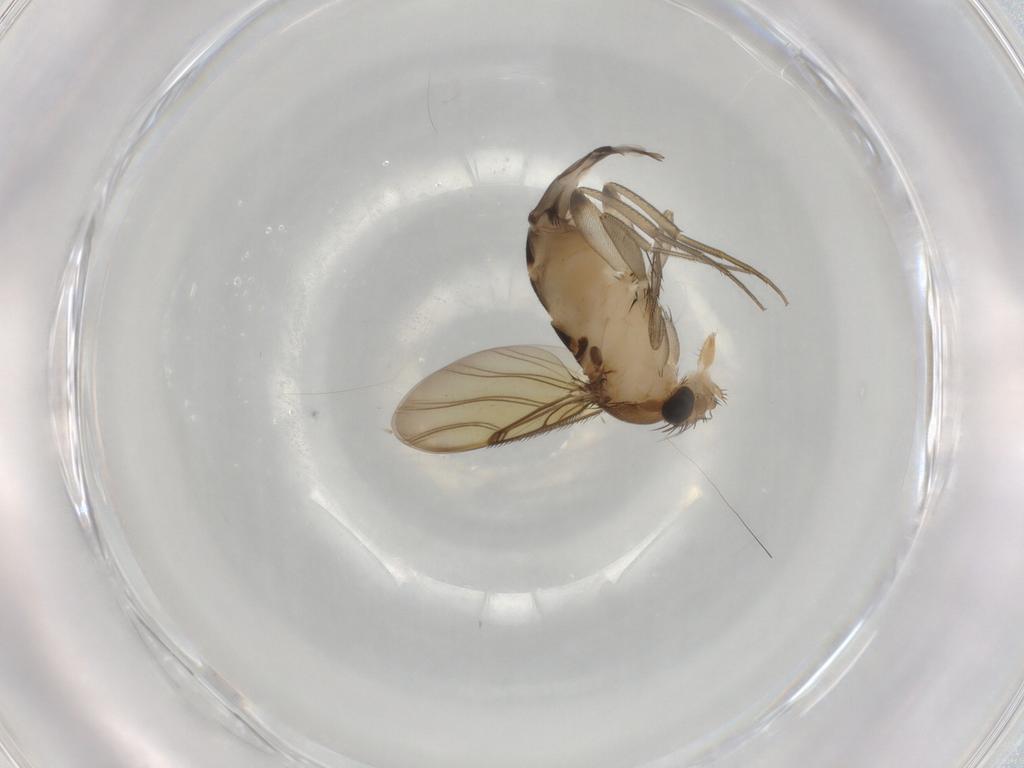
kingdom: Animalia
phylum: Arthropoda
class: Insecta
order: Diptera
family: Phoridae
